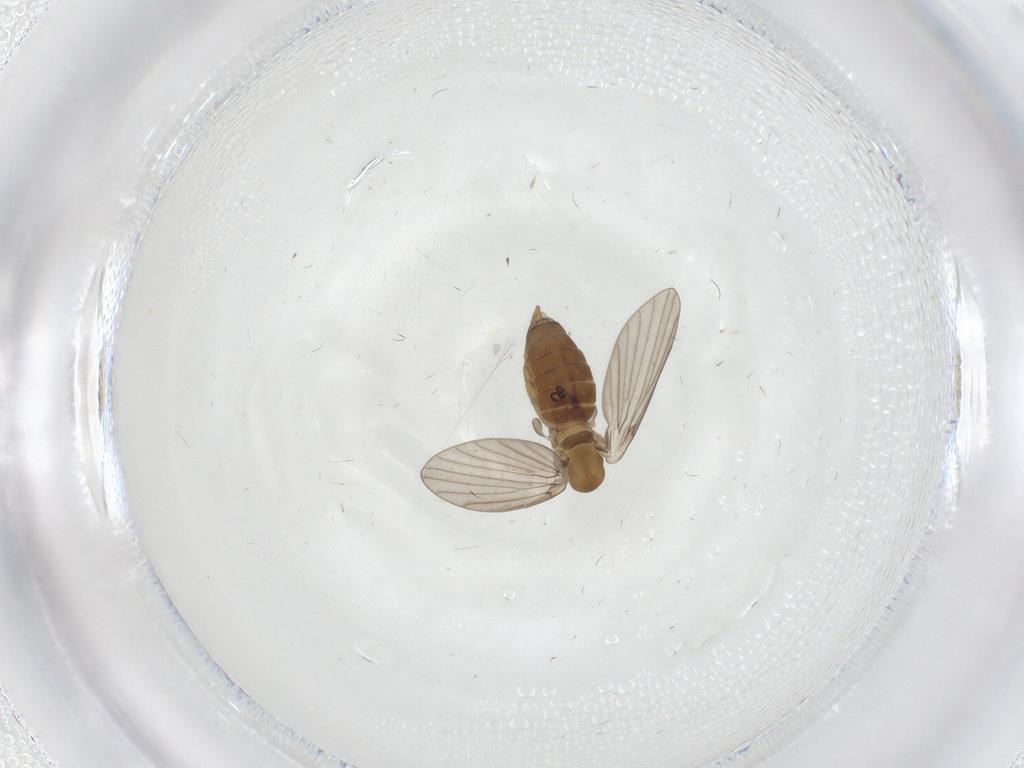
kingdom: Animalia
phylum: Arthropoda
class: Insecta
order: Diptera
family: Dolichopodidae
